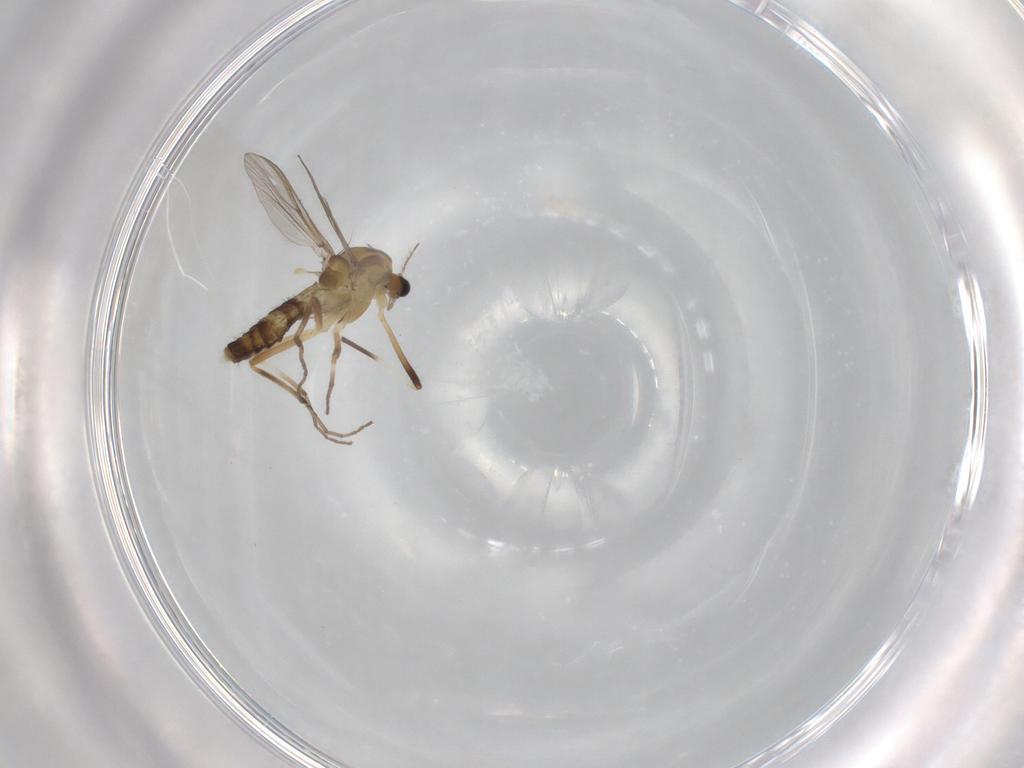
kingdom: Animalia
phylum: Arthropoda
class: Insecta
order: Diptera
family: Chironomidae
